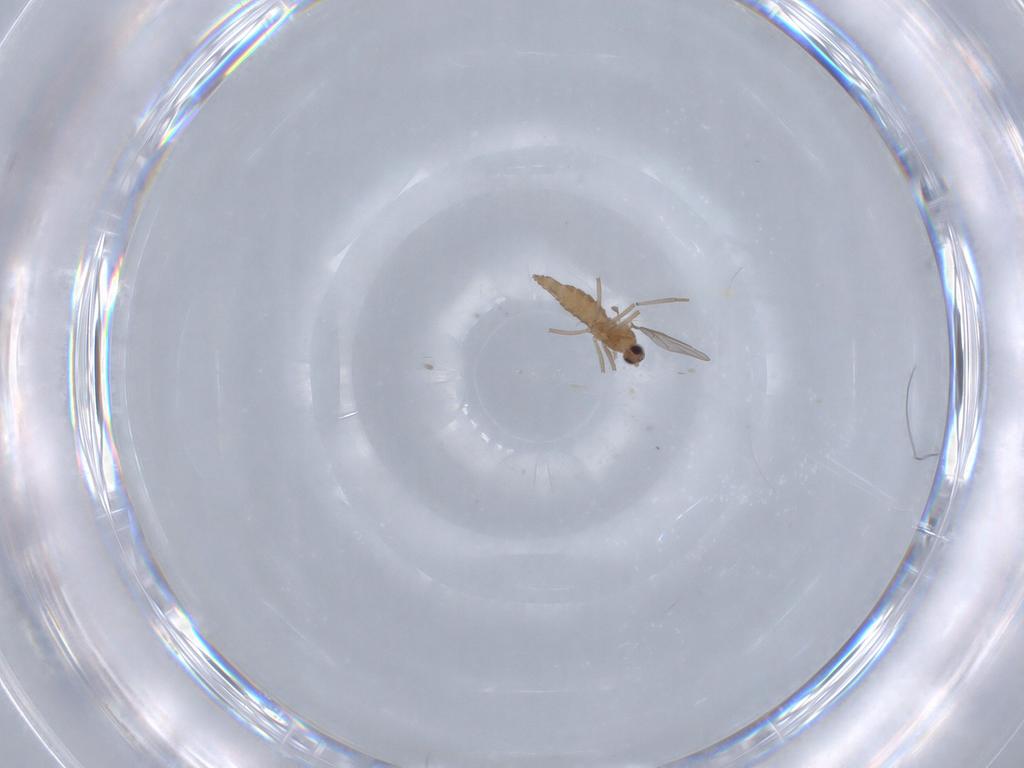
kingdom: Animalia
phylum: Arthropoda
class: Insecta
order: Diptera
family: Cecidomyiidae
